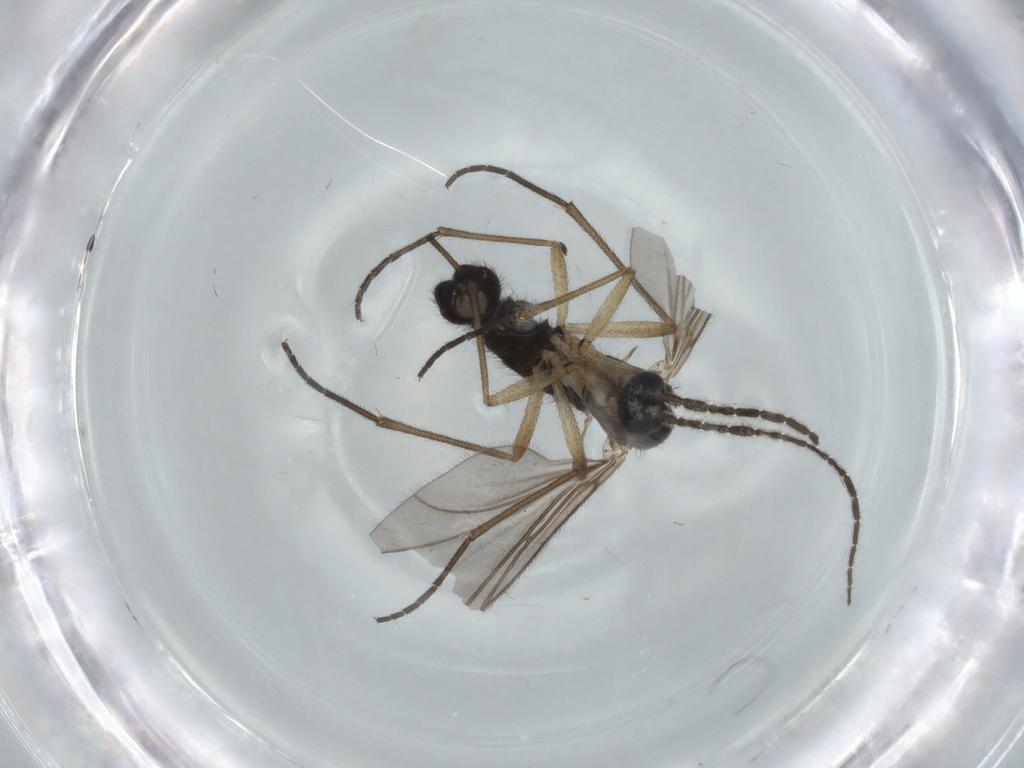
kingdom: Animalia
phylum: Arthropoda
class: Insecta
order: Diptera
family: Sciaridae
